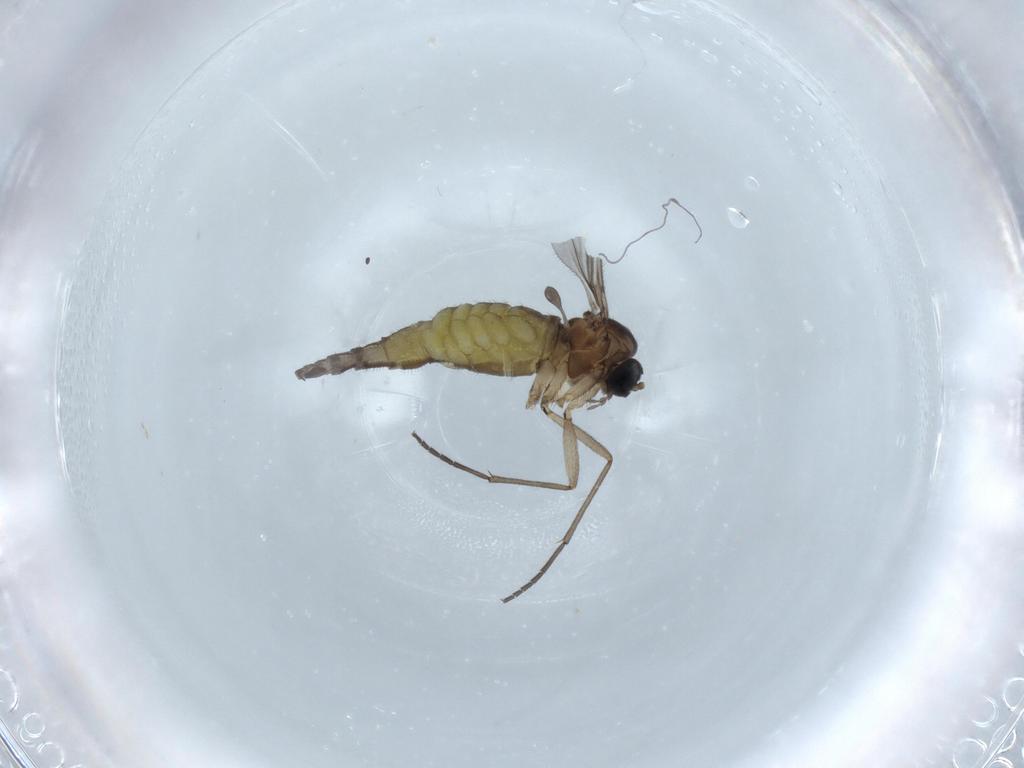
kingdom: Animalia
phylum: Arthropoda
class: Insecta
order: Diptera
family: Sciaridae
